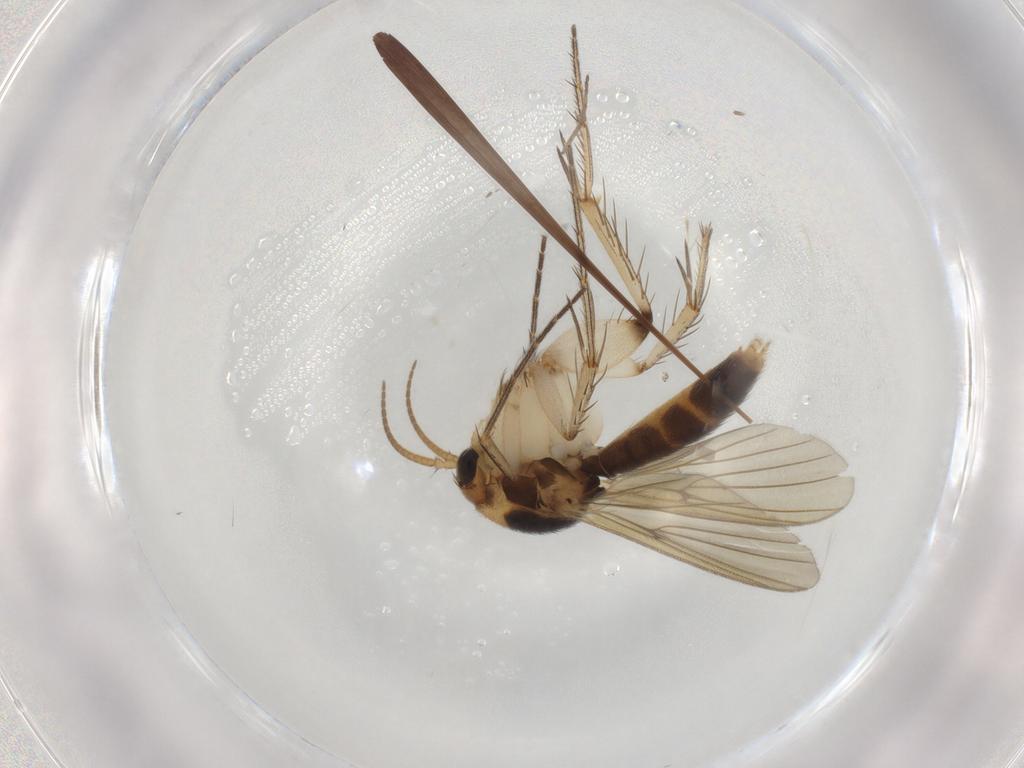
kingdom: Animalia
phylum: Arthropoda
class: Insecta
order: Diptera
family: Mycetophilidae
